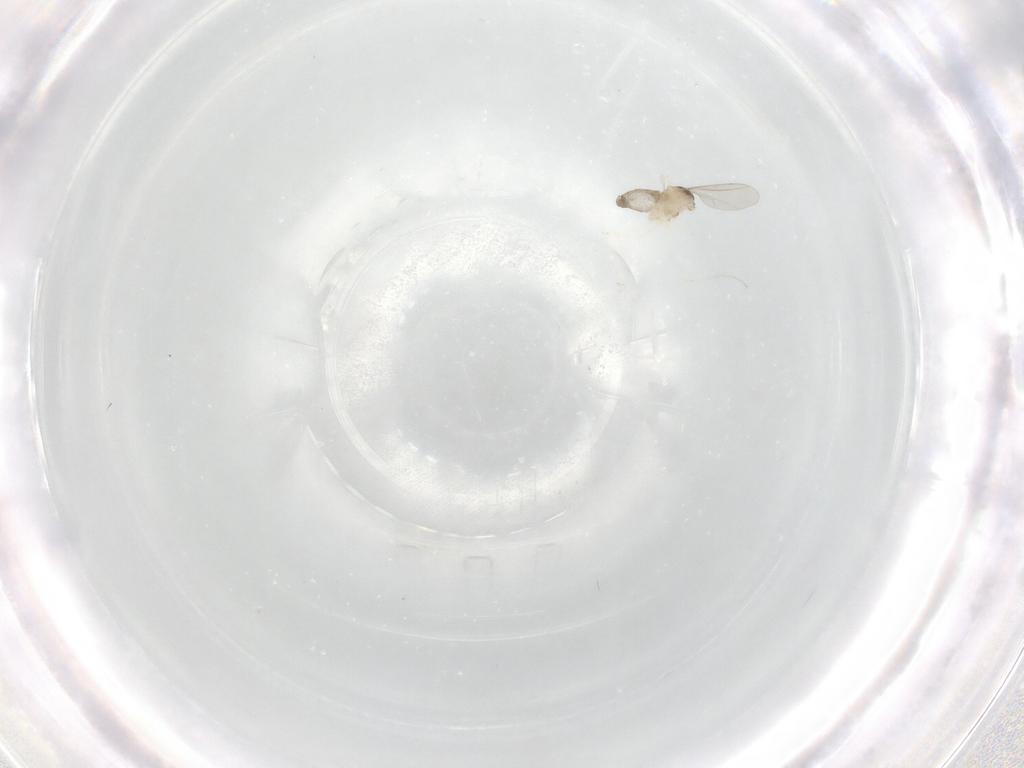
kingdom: Animalia
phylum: Arthropoda
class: Insecta
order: Diptera
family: Cecidomyiidae
